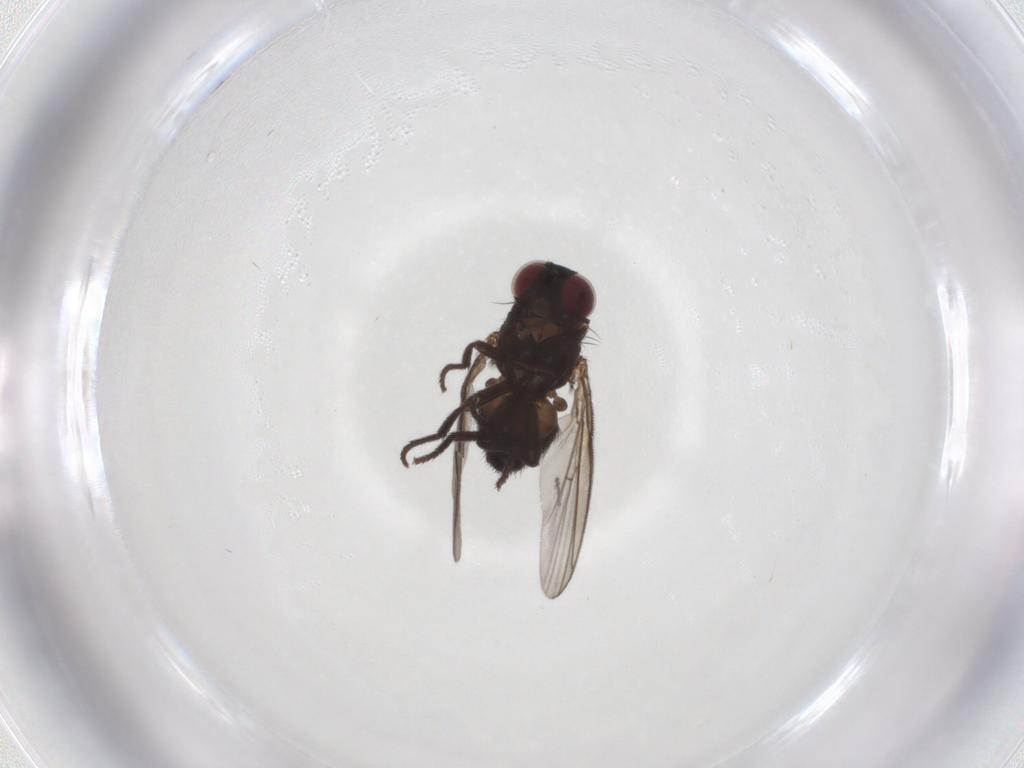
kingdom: Animalia
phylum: Arthropoda
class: Insecta
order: Diptera
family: Agromyzidae
